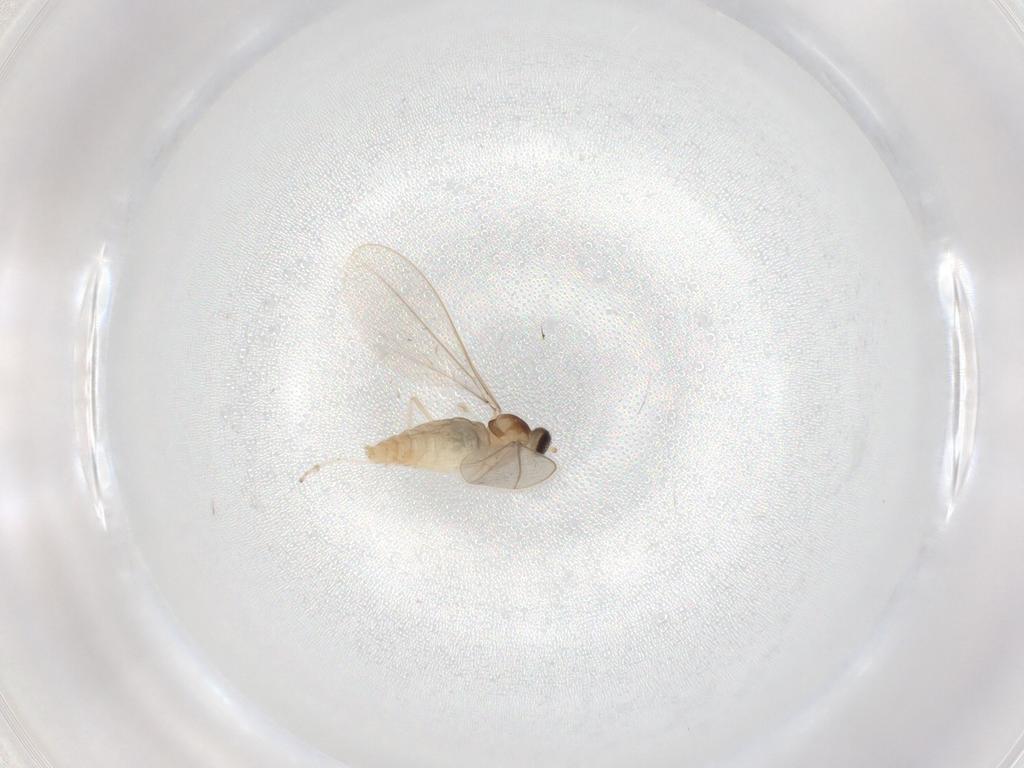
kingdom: Animalia
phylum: Arthropoda
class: Insecta
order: Diptera
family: Cecidomyiidae
